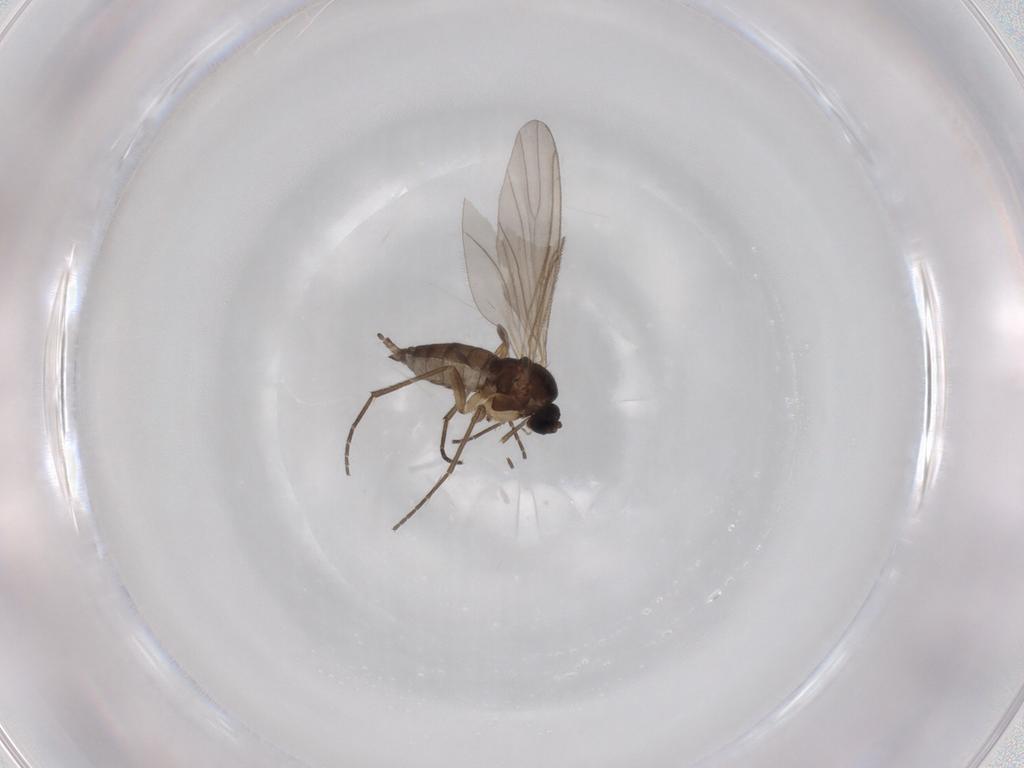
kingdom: Animalia
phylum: Arthropoda
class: Insecta
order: Diptera
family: Sciaridae
